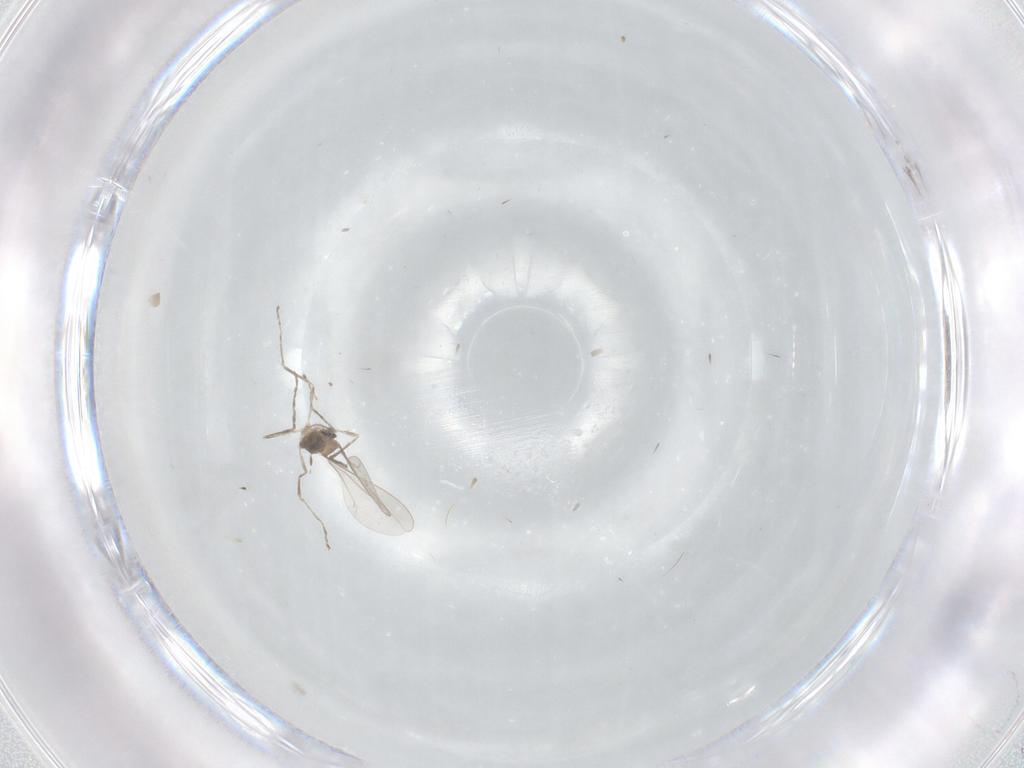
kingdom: Animalia
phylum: Arthropoda
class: Insecta
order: Diptera
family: Cecidomyiidae
